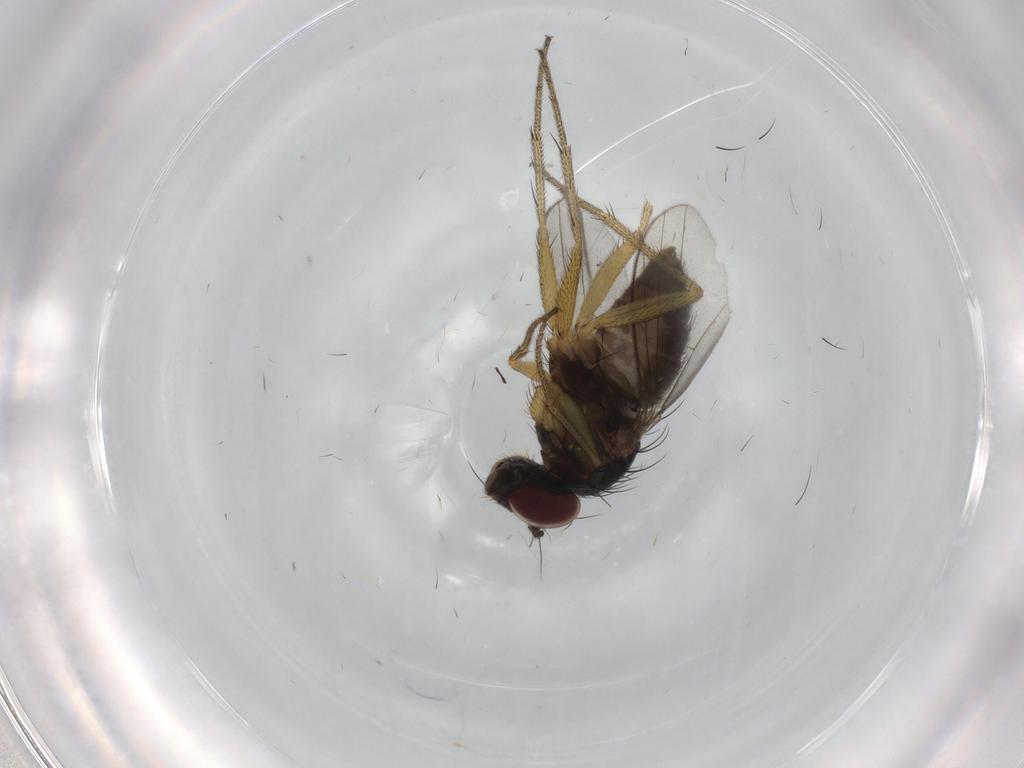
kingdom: Animalia
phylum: Arthropoda
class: Insecta
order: Diptera
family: Dolichopodidae
